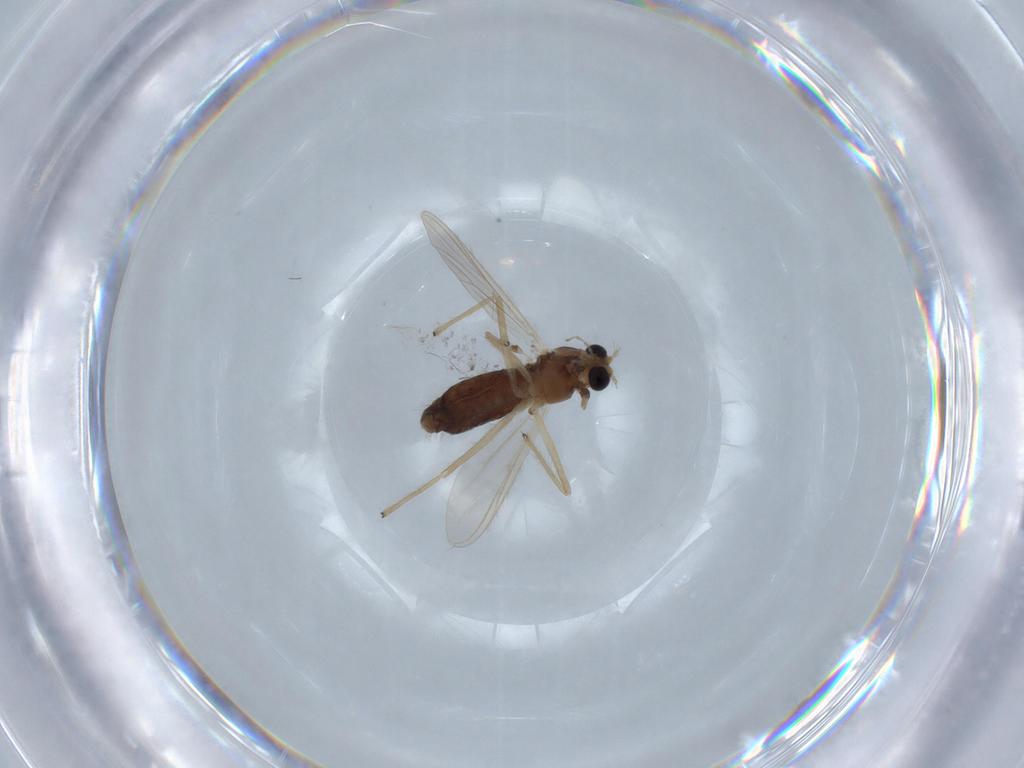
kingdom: Animalia
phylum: Arthropoda
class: Insecta
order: Diptera
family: Chironomidae
